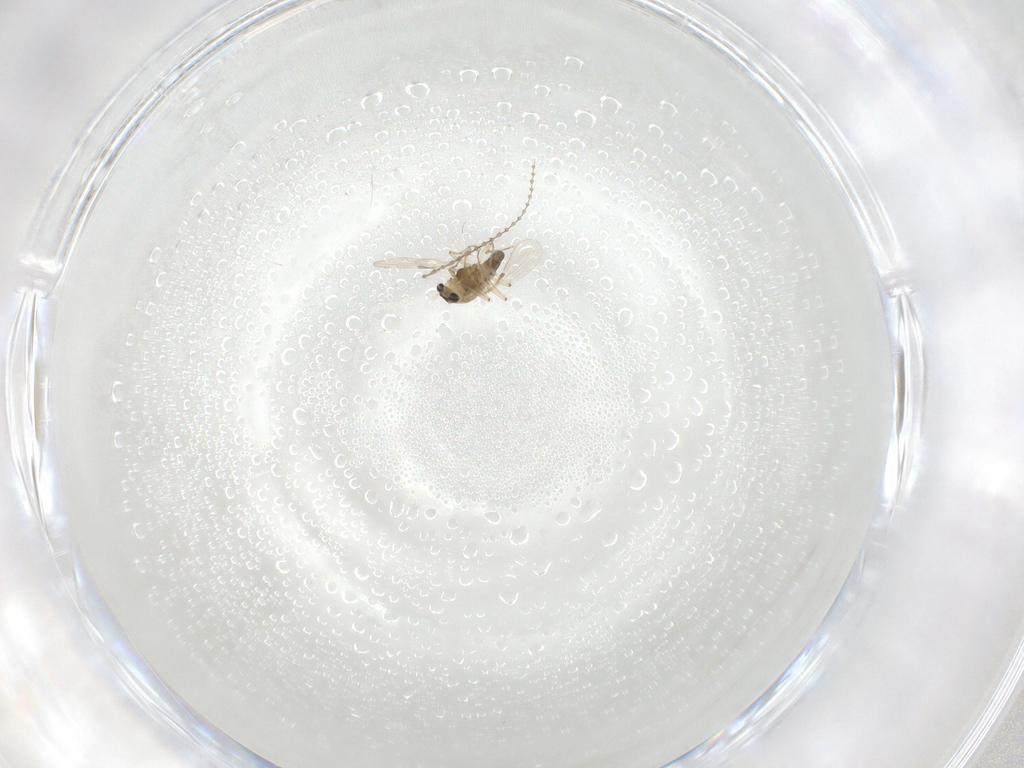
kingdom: Animalia
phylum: Arthropoda
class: Insecta
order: Diptera
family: Chironomidae
